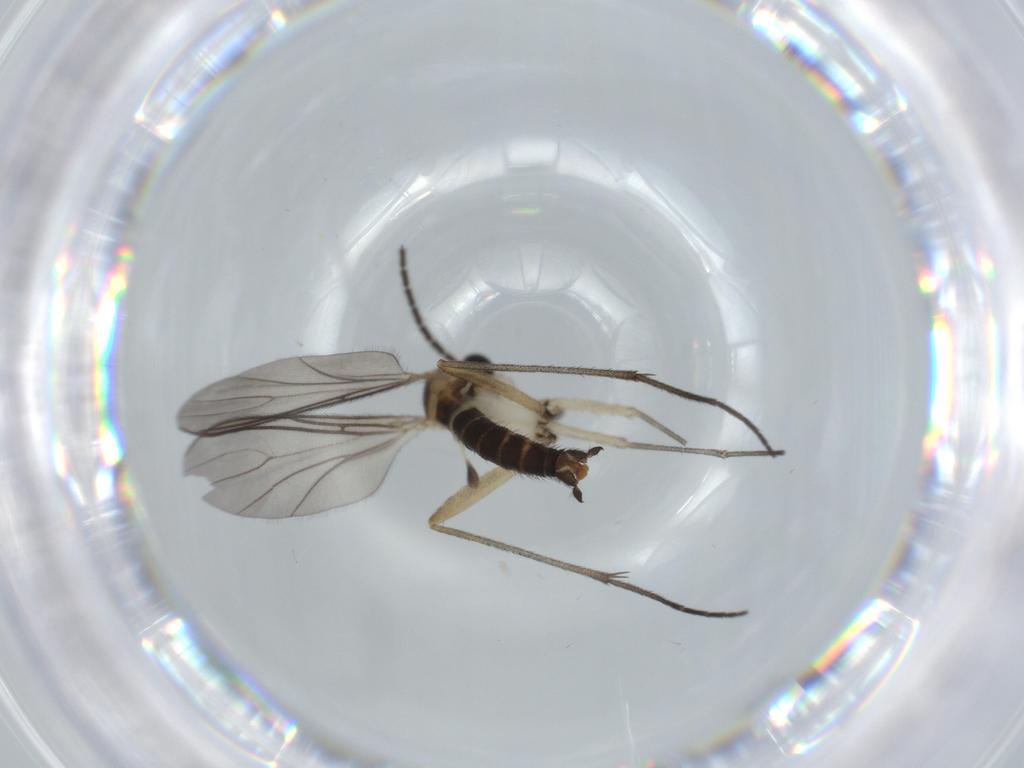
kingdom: Animalia
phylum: Arthropoda
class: Insecta
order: Diptera
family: Sciaridae
